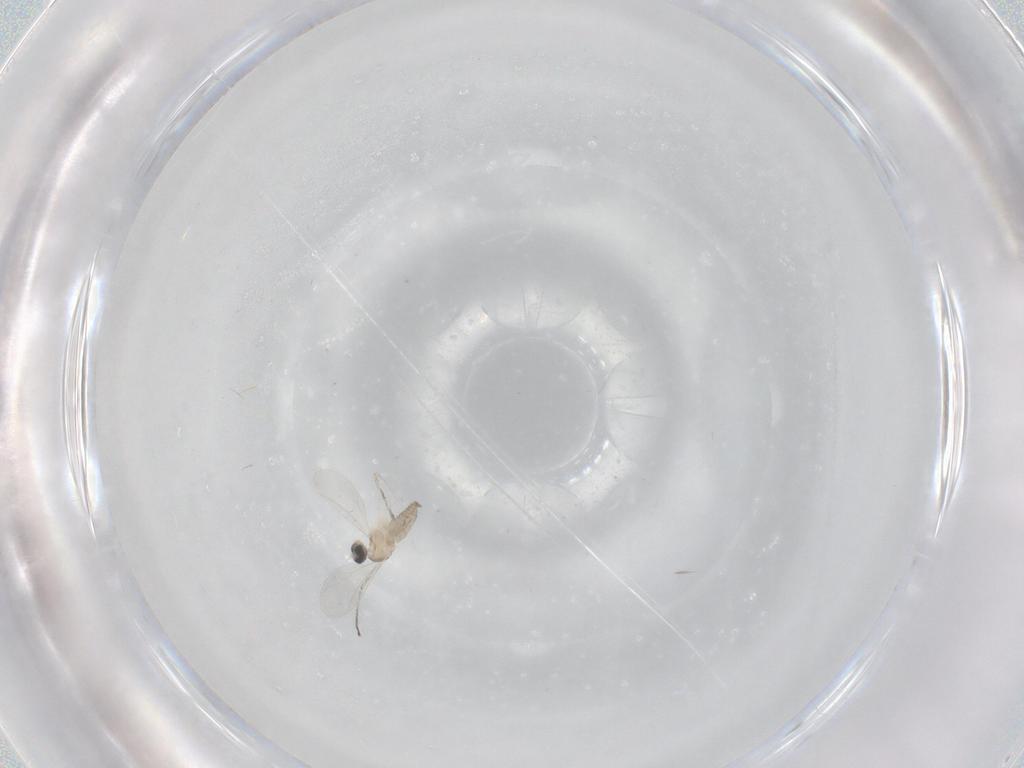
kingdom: Animalia
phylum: Arthropoda
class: Insecta
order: Diptera
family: Cecidomyiidae
